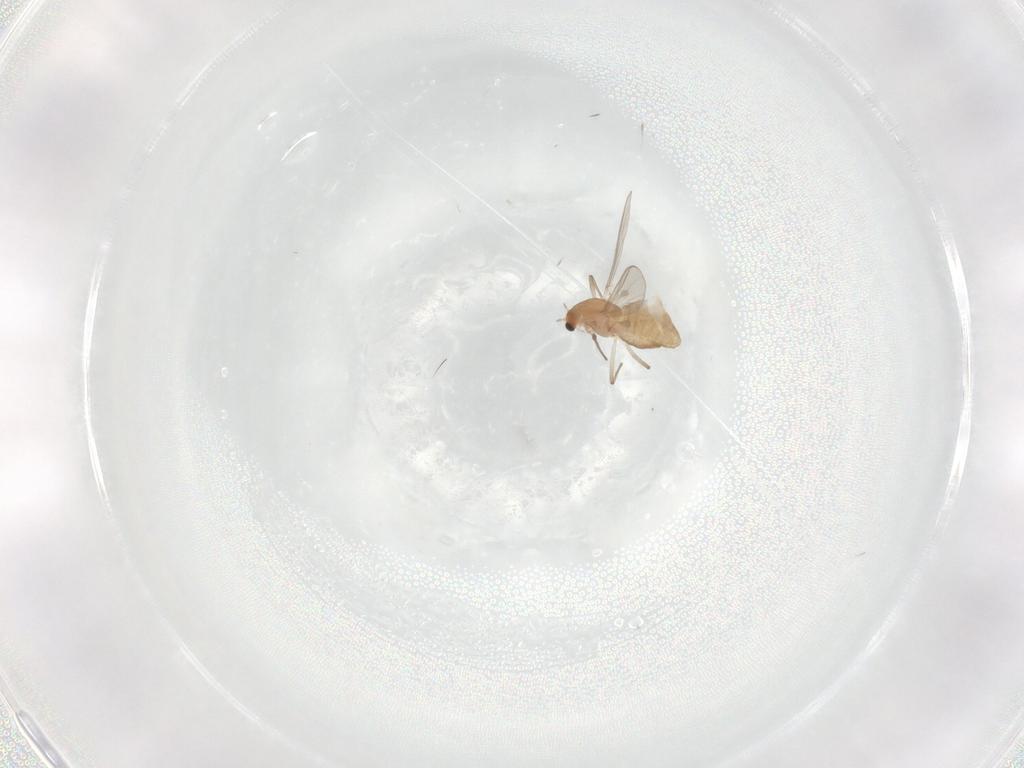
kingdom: Animalia
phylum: Arthropoda
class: Insecta
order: Diptera
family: Chironomidae
